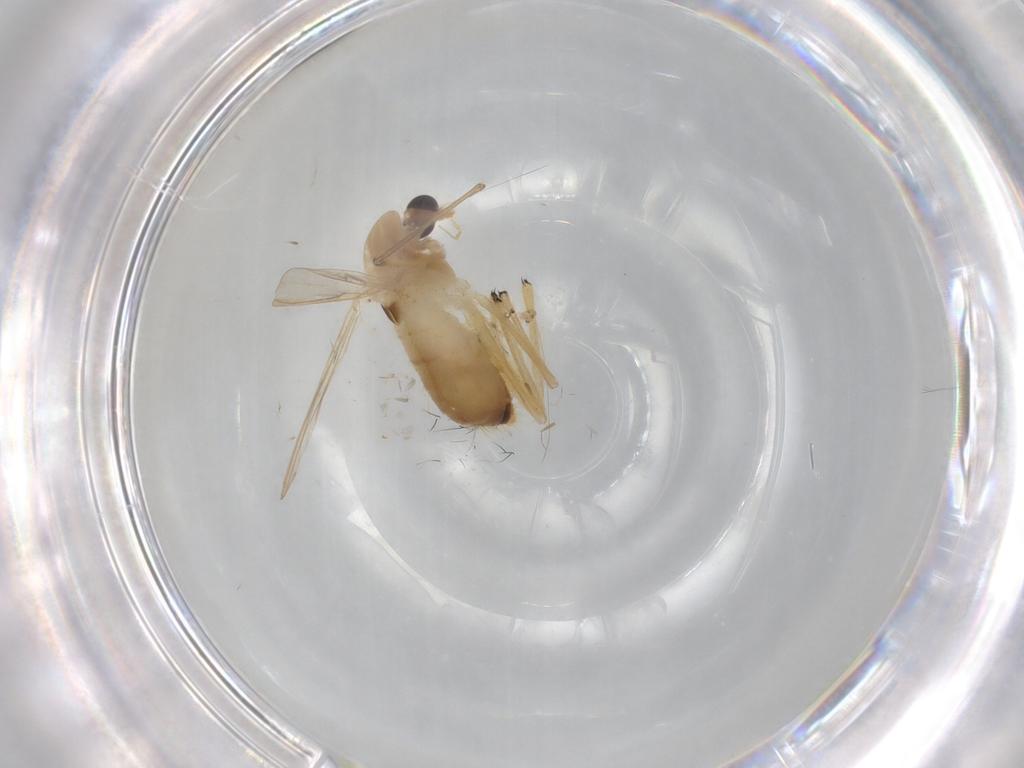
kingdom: Animalia
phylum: Arthropoda
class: Insecta
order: Diptera
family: Chironomidae
